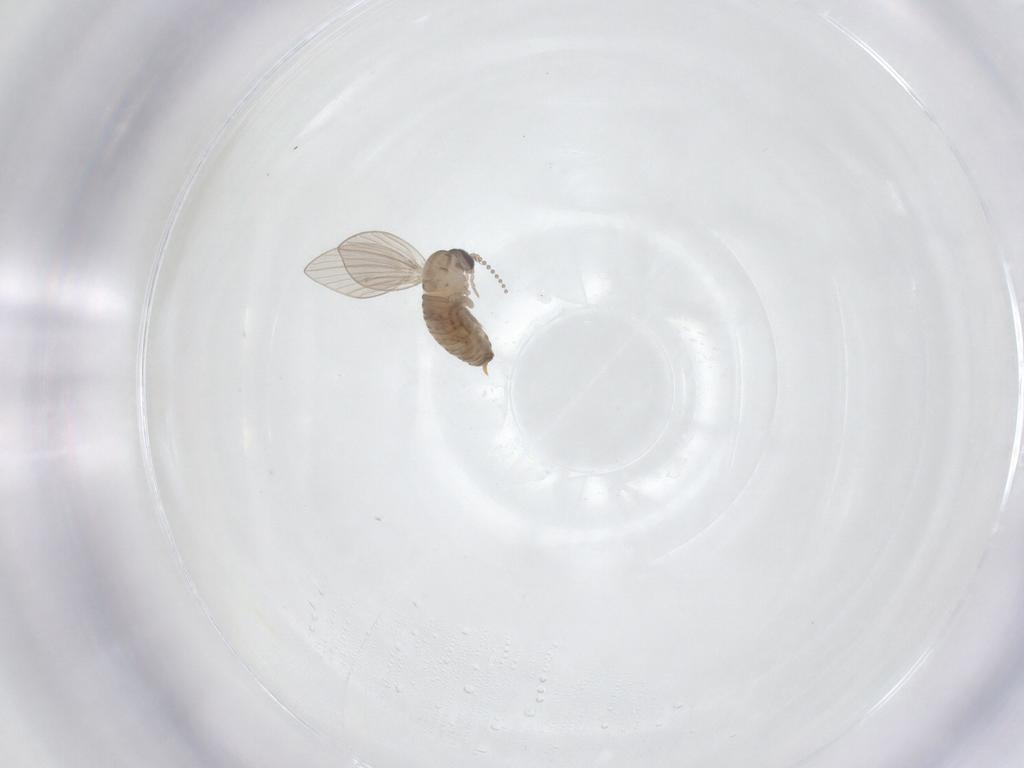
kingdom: Animalia
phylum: Arthropoda
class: Insecta
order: Diptera
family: Psychodidae
